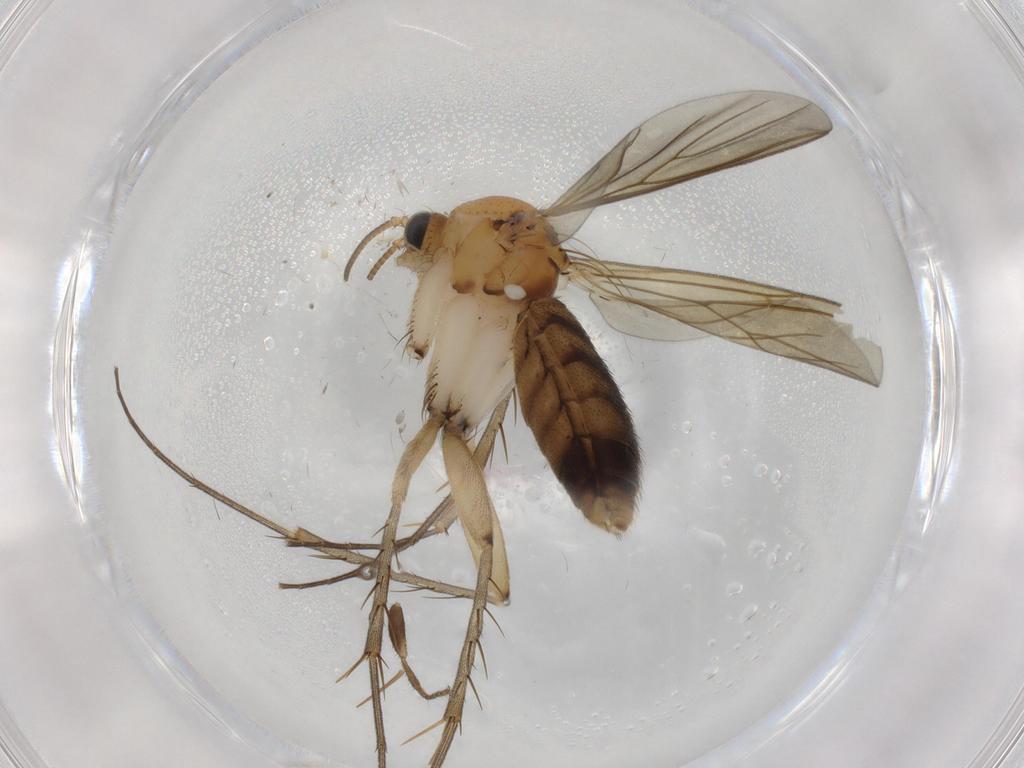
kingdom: Animalia
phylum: Arthropoda
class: Insecta
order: Diptera
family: Mycetophilidae
